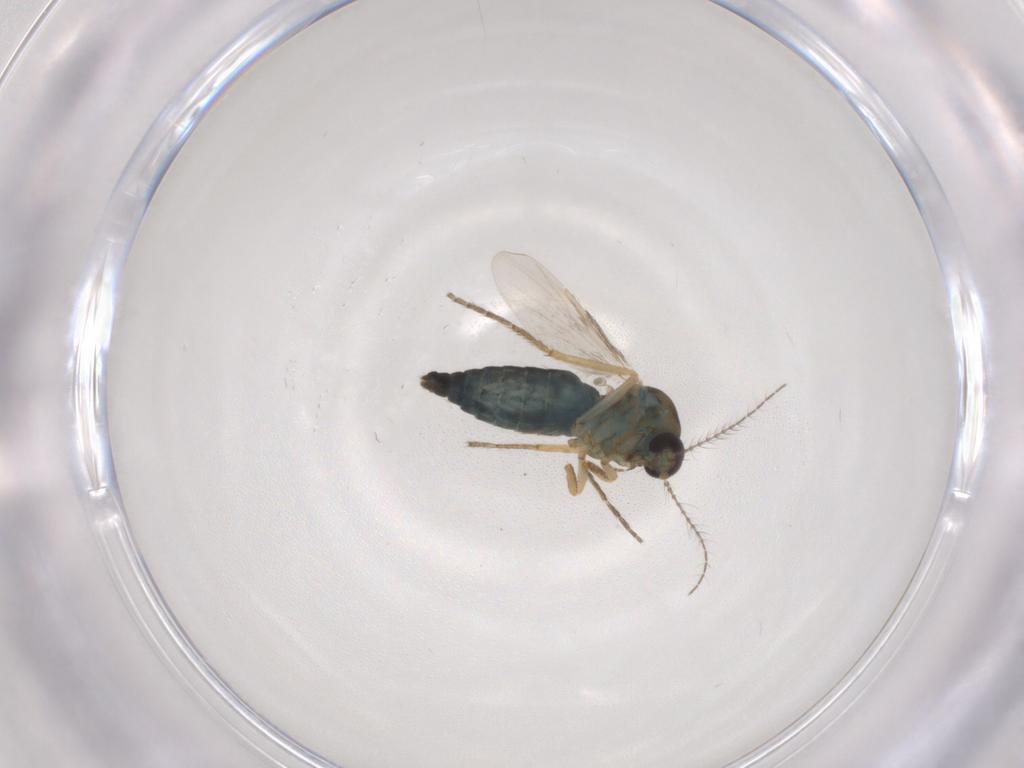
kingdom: Animalia
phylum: Arthropoda
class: Insecta
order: Diptera
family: Ceratopogonidae
